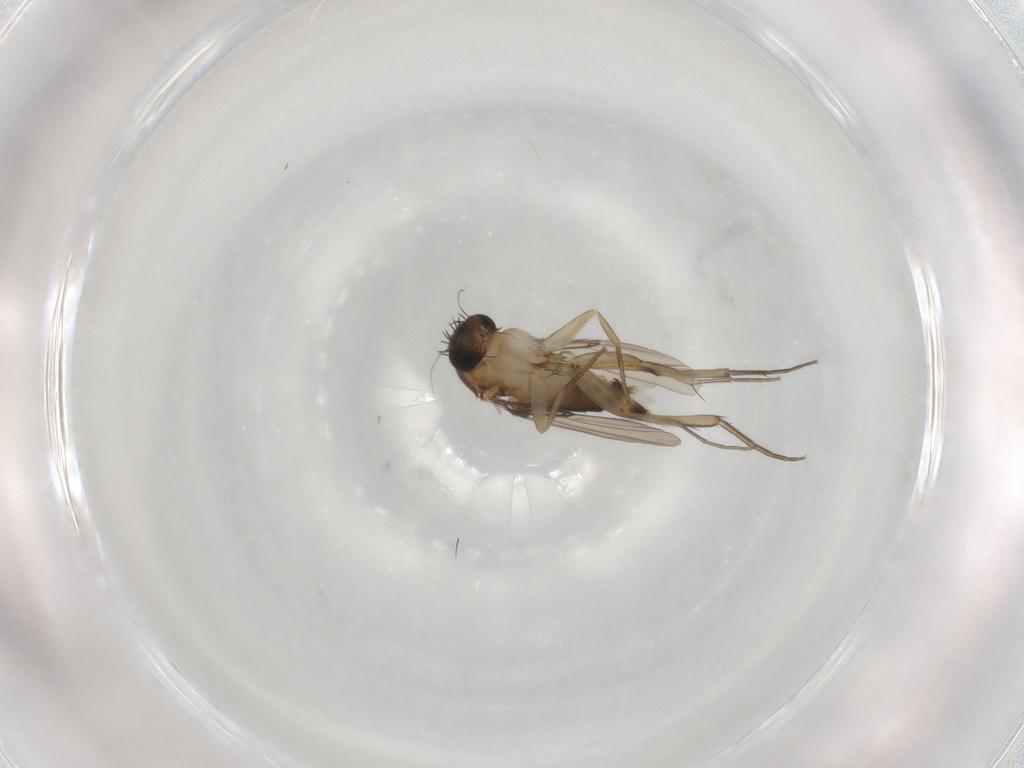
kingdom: Animalia
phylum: Arthropoda
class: Insecta
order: Diptera
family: Phoridae
